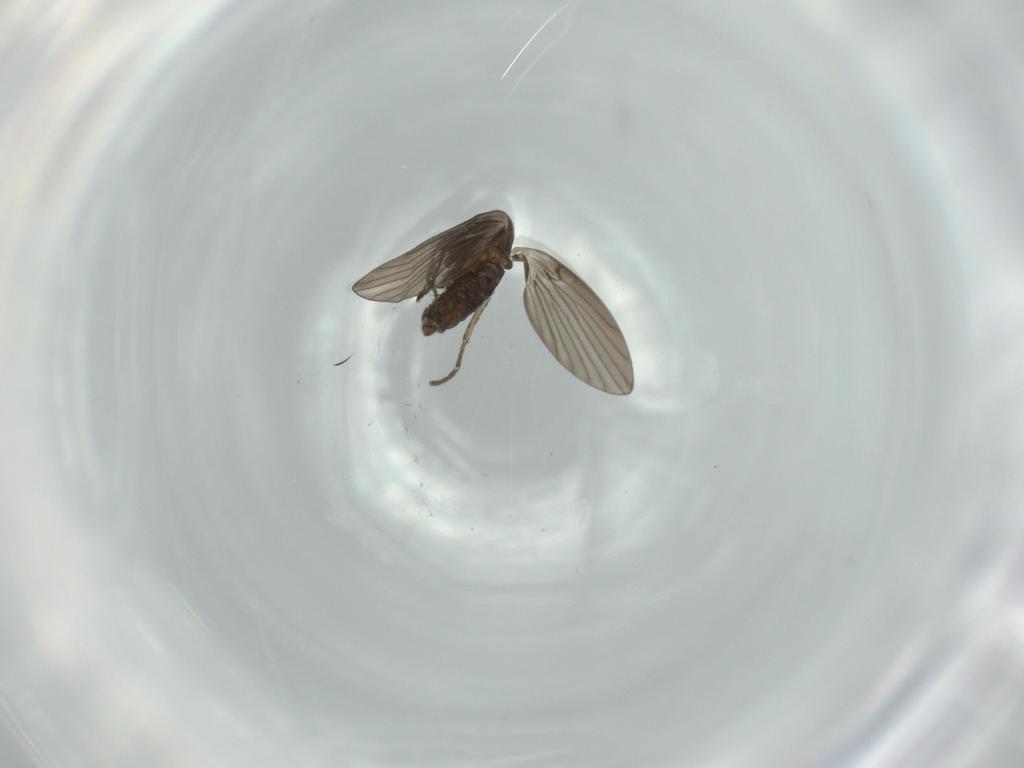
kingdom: Animalia
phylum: Arthropoda
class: Insecta
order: Diptera
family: Psychodidae
